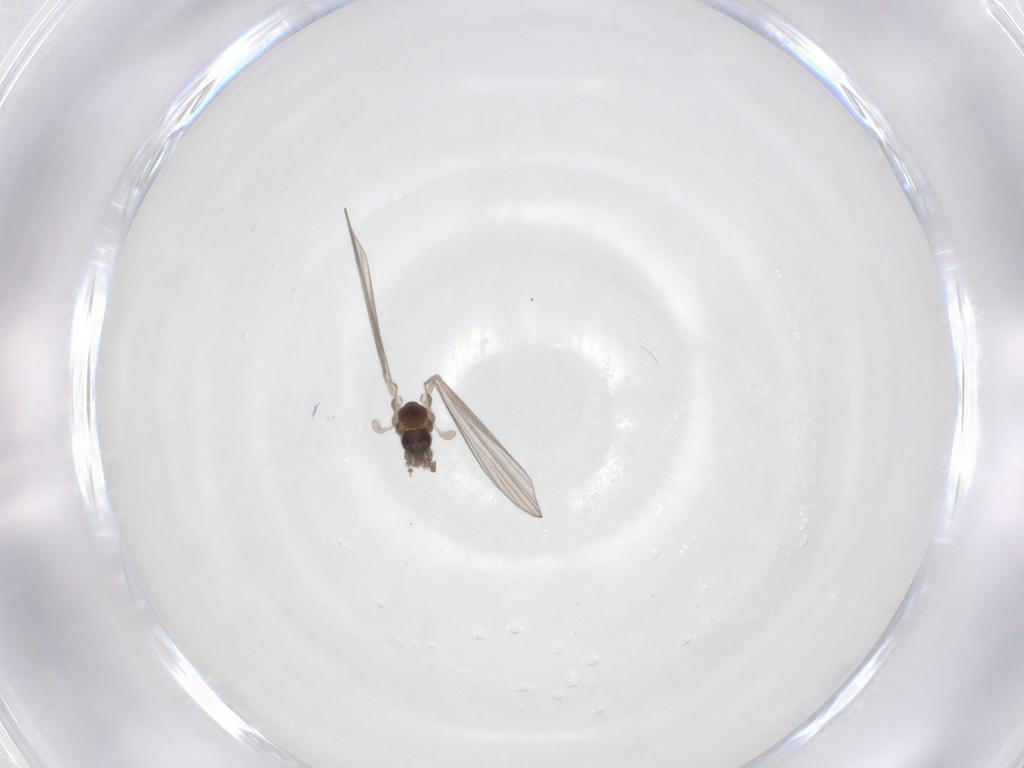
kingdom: Animalia
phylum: Arthropoda
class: Insecta
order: Diptera
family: Psychodidae
